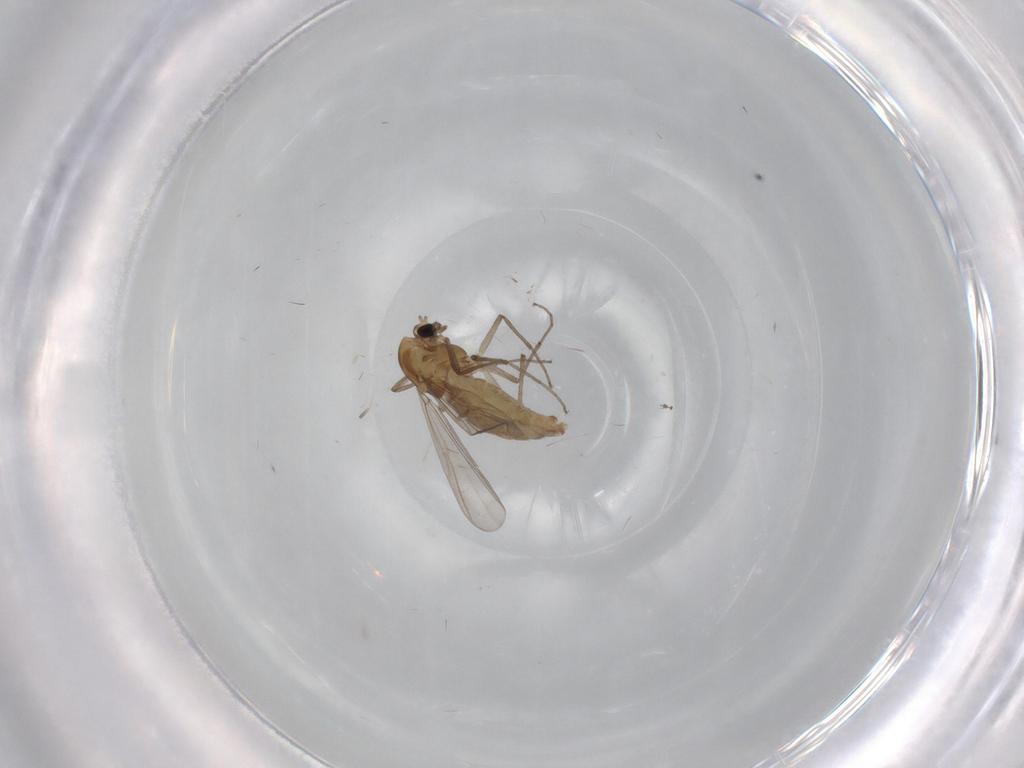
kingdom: Animalia
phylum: Arthropoda
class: Insecta
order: Diptera
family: Chironomidae
